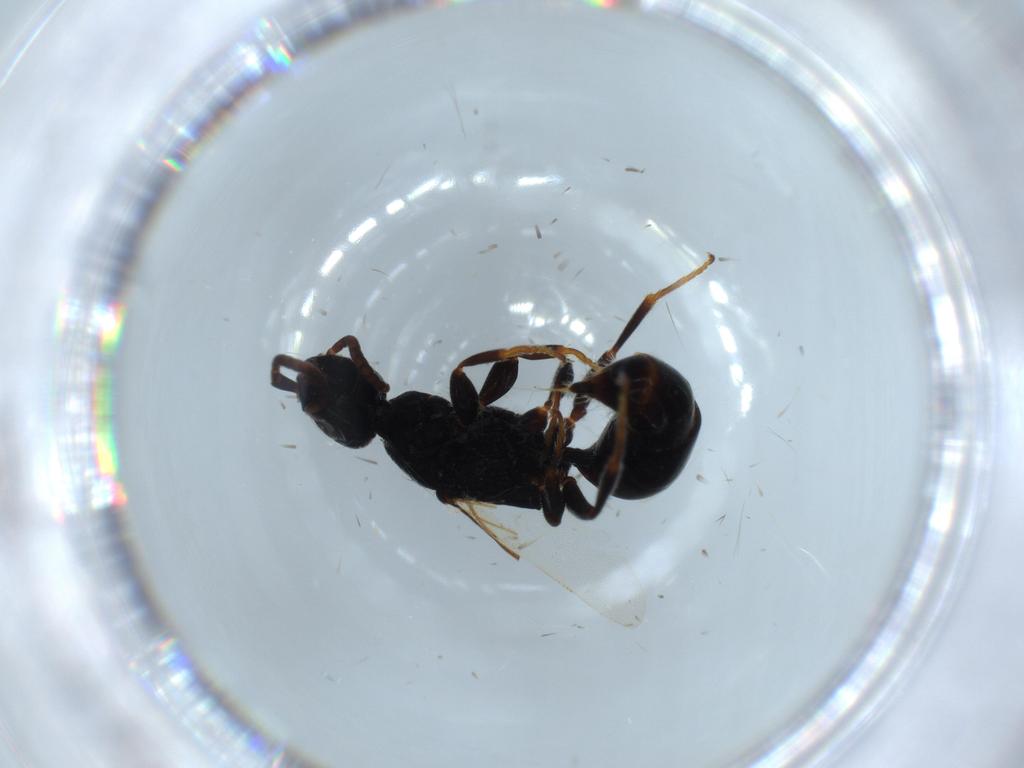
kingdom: Animalia
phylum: Arthropoda
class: Insecta
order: Hymenoptera
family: Bethylidae
